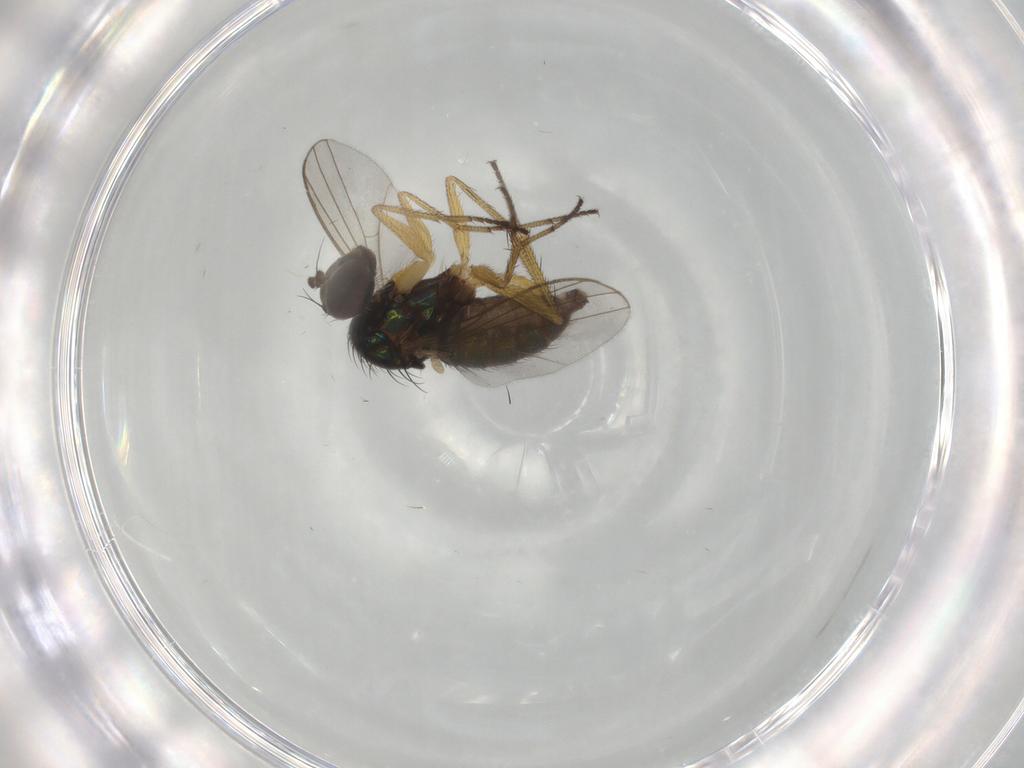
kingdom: Animalia
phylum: Arthropoda
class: Insecta
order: Diptera
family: Dolichopodidae
